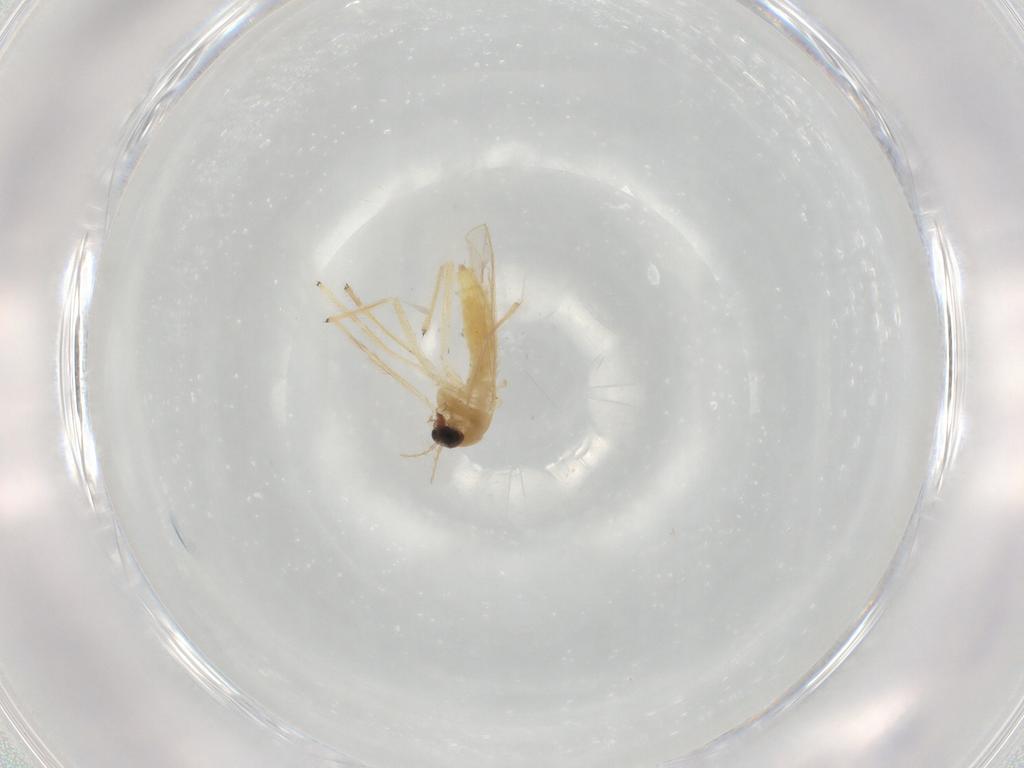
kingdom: Animalia
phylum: Arthropoda
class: Insecta
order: Diptera
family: Chironomidae
